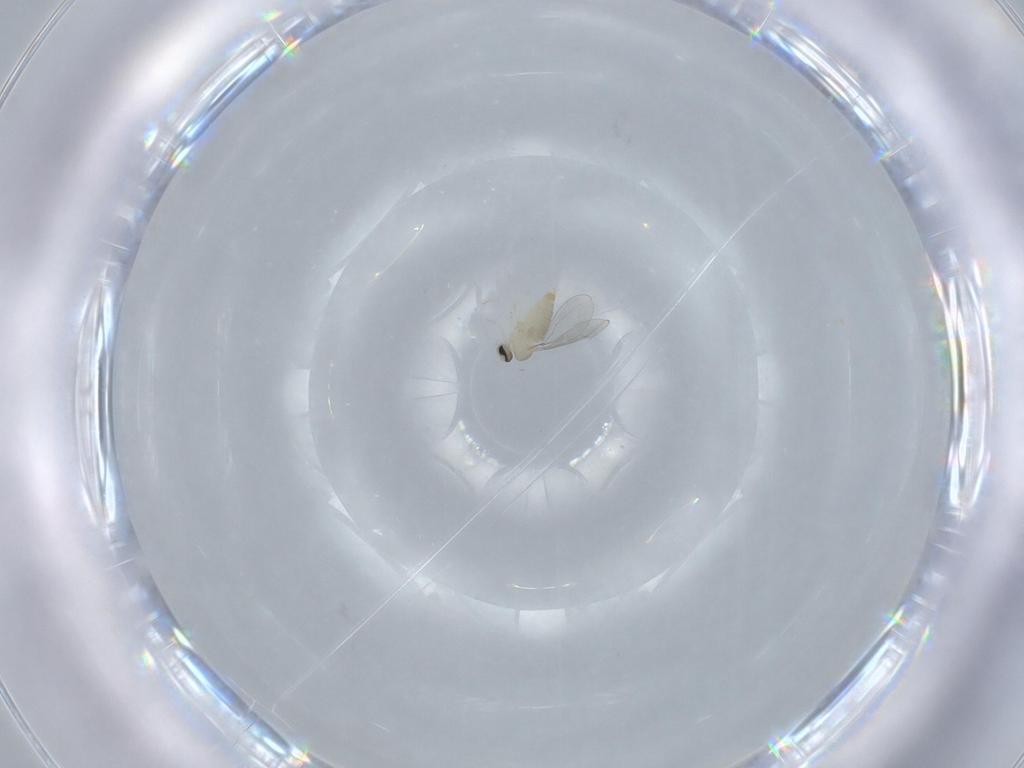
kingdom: Animalia
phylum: Arthropoda
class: Insecta
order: Diptera
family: Cecidomyiidae
